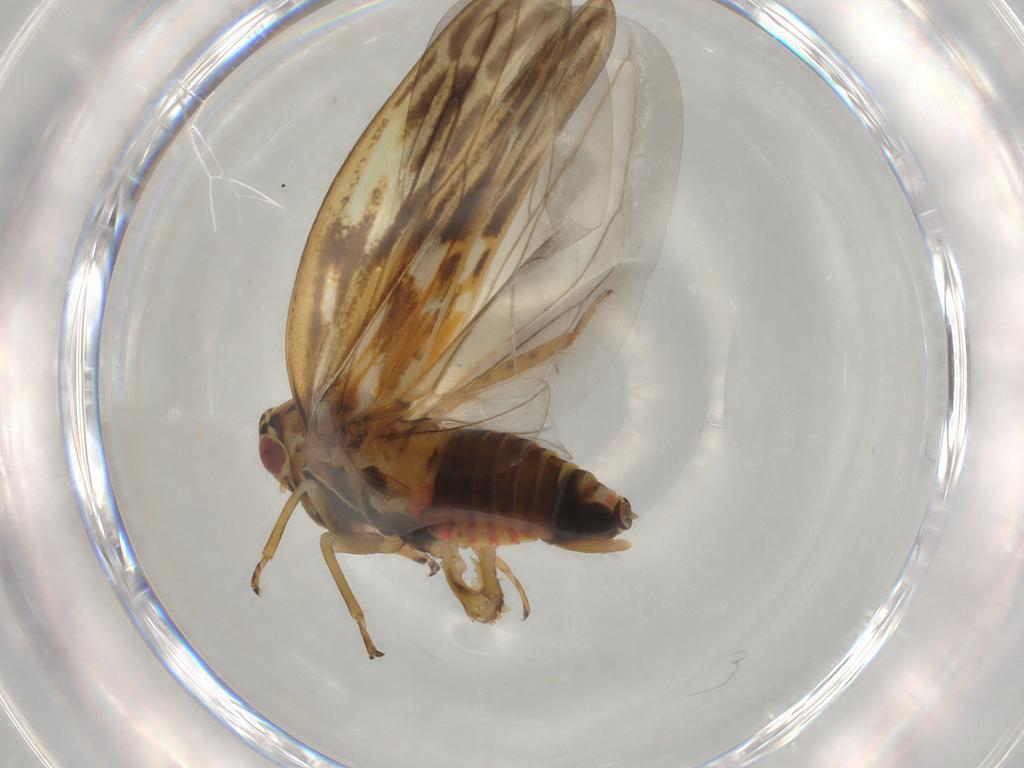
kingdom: Animalia
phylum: Arthropoda
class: Insecta
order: Hemiptera
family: Cicadellidae
